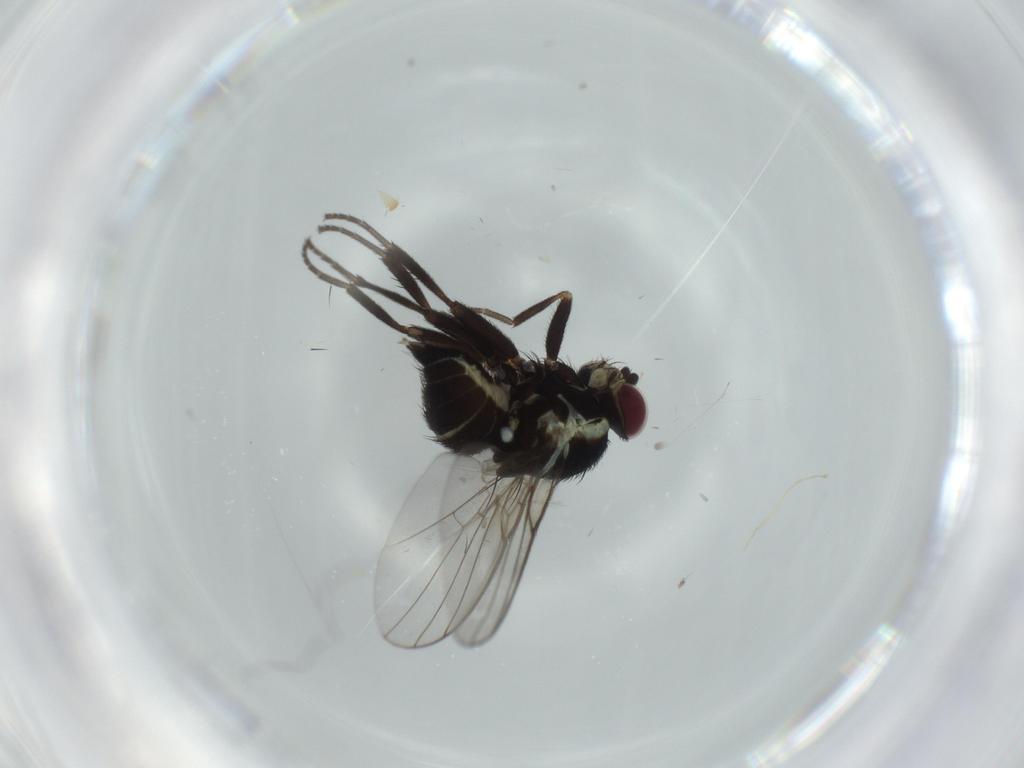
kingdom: Animalia
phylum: Arthropoda
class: Insecta
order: Diptera
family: Agromyzidae
